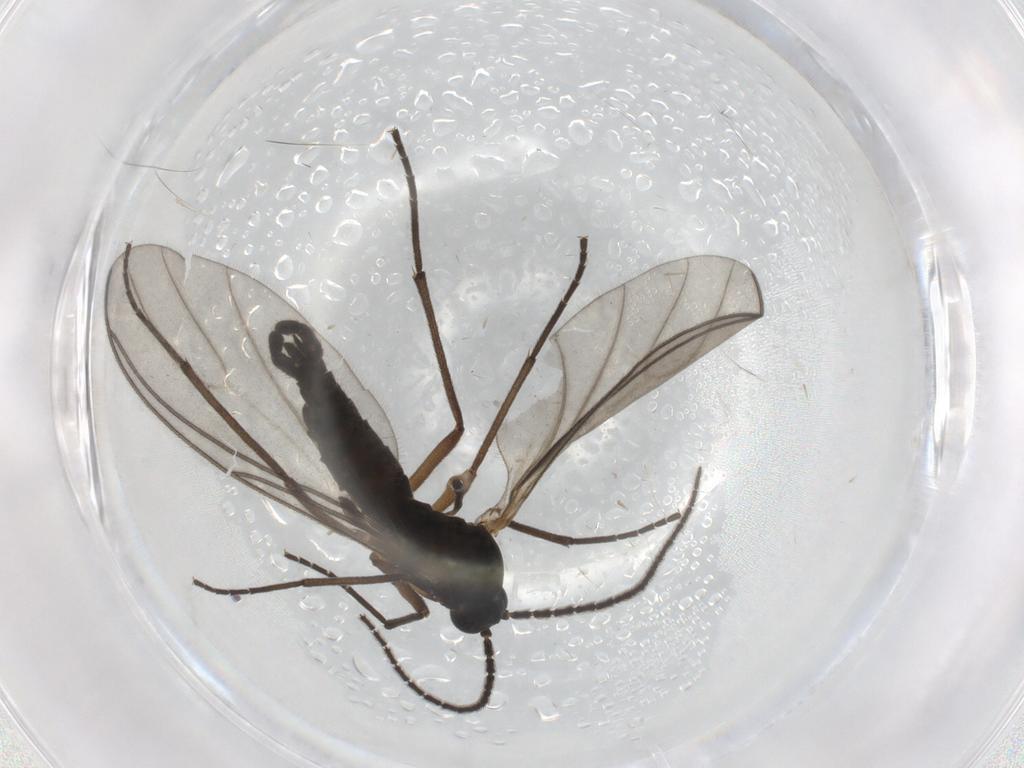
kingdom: Animalia
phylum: Arthropoda
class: Insecta
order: Diptera
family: Sciaridae
